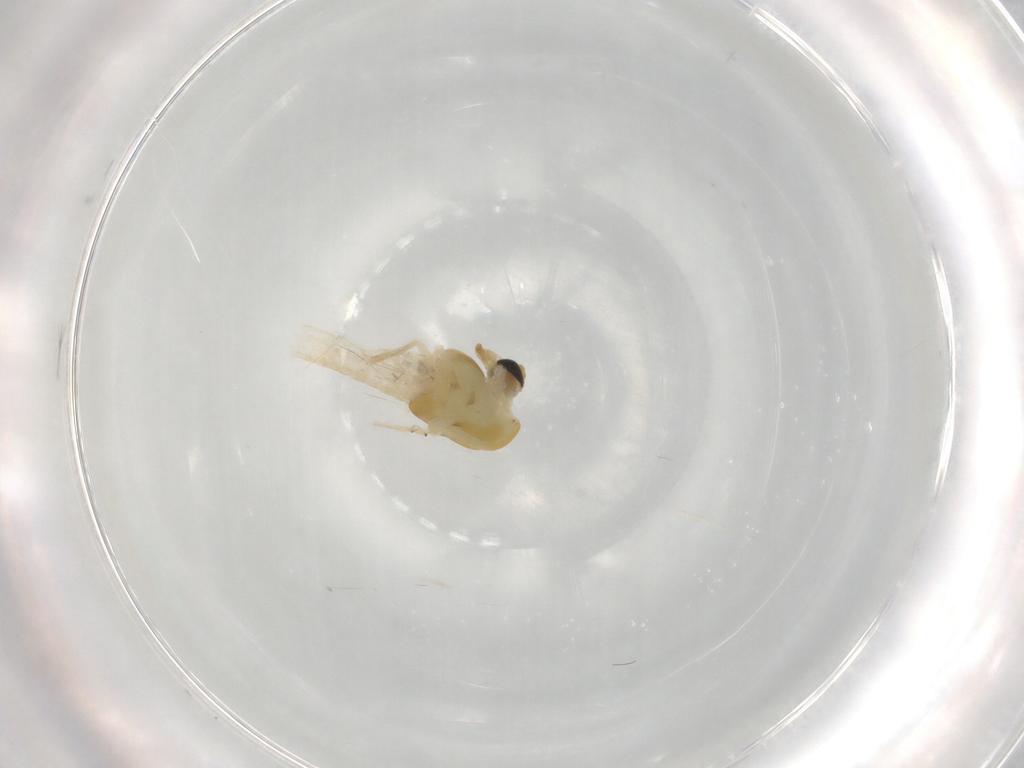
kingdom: Animalia
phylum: Arthropoda
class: Insecta
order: Diptera
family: Chironomidae
